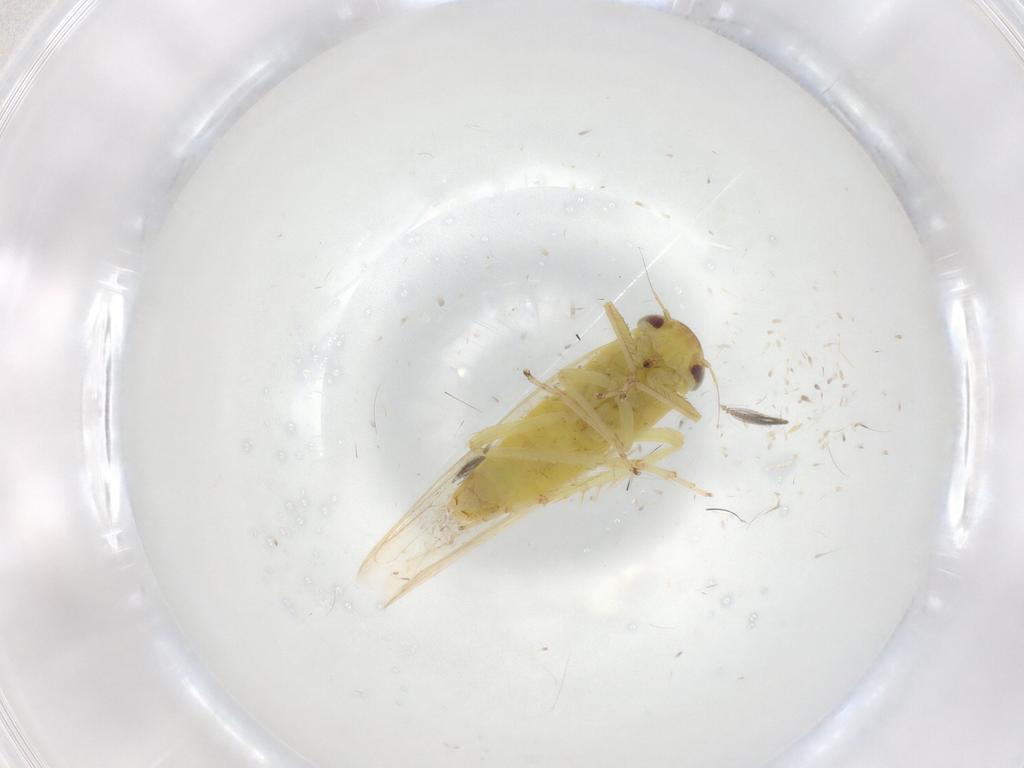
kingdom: Animalia
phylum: Arthropoda
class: Insecta
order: Hemiptera
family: Cicadellidae
